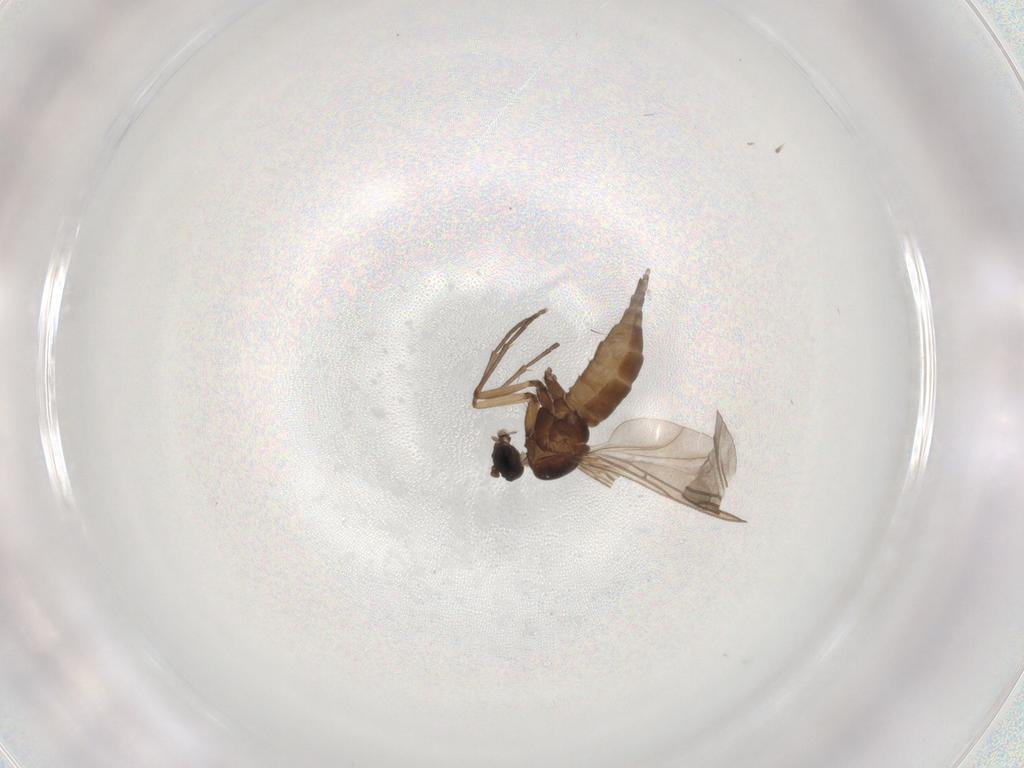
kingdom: Animalia
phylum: Arthropoda
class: Insecta
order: Diptera
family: Sciaridae
